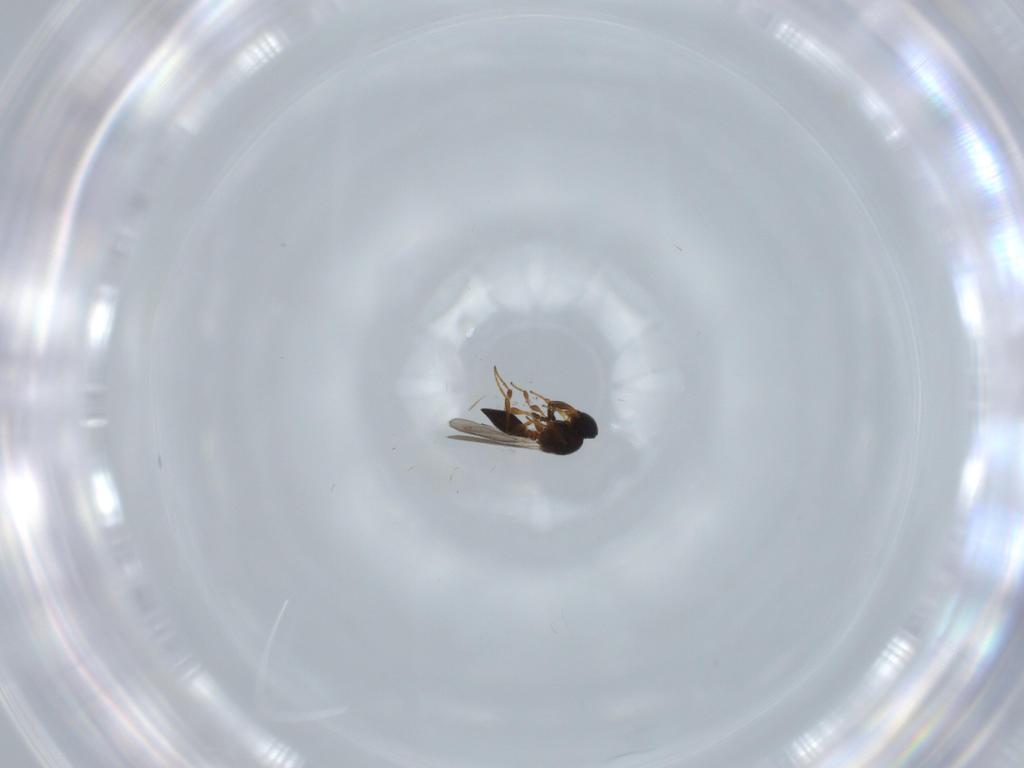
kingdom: Animalia
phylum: Arthropoda
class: Insecta
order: Hymenoptera
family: Platygastridae
